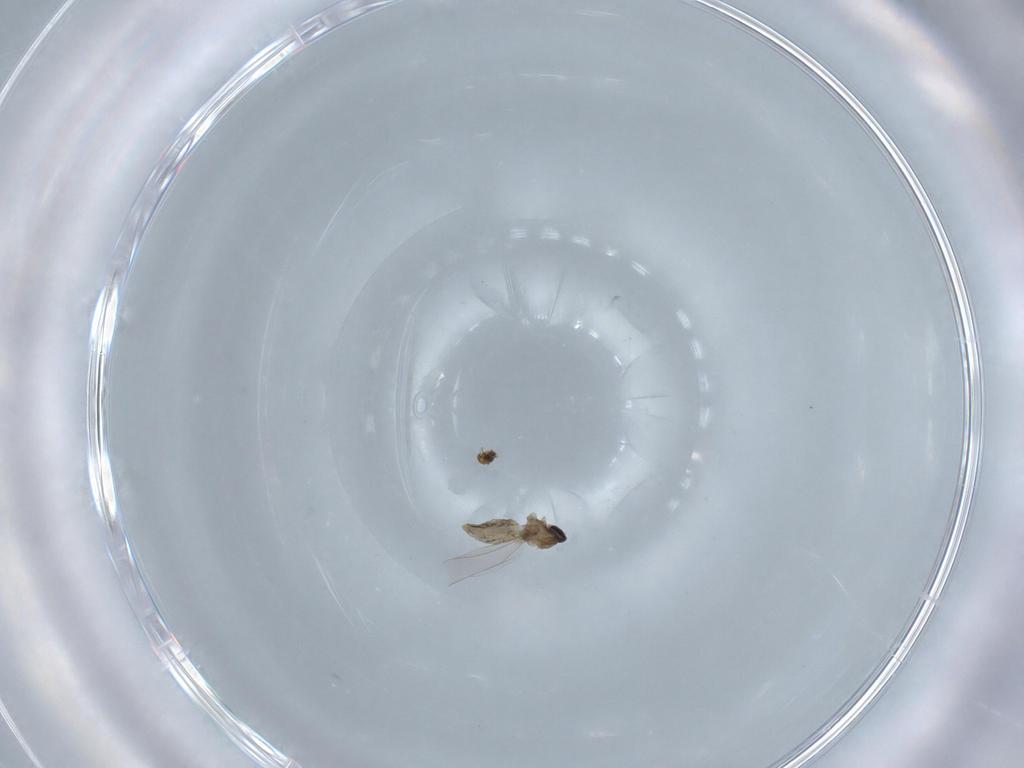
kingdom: Animalia
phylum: Arthropoda
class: Insecta
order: Diptera
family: Cecidomyiidae
